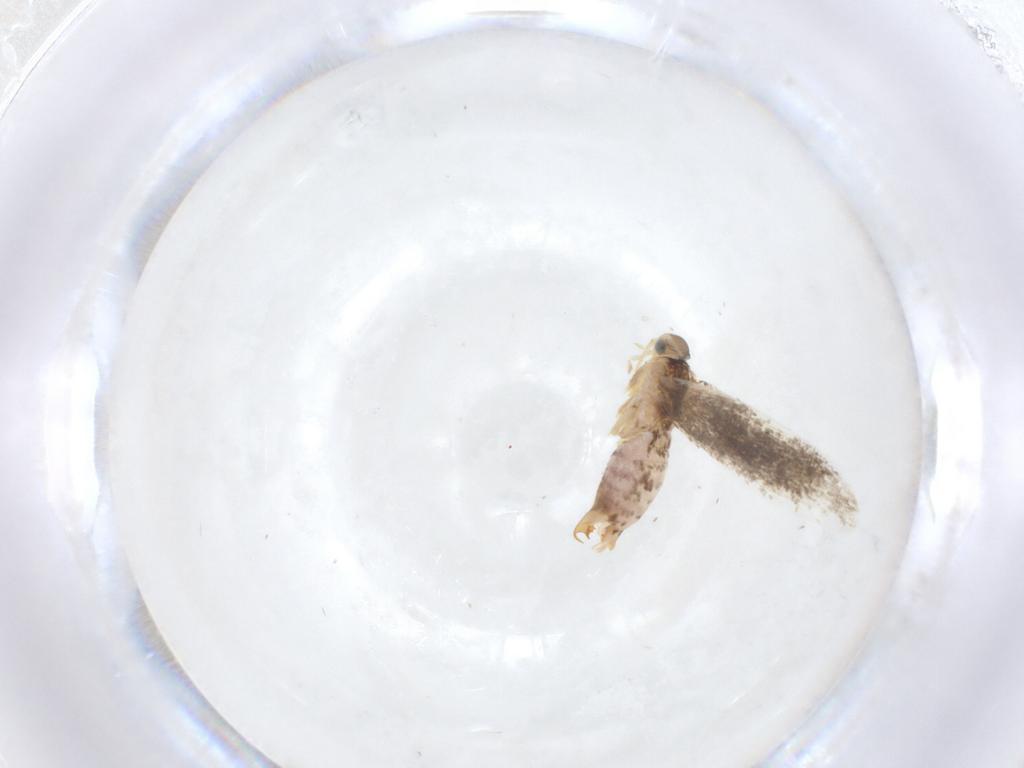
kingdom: Animalia
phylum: Arthropoda
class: Insecta
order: Lepidoptera
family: Dryadaulidae
